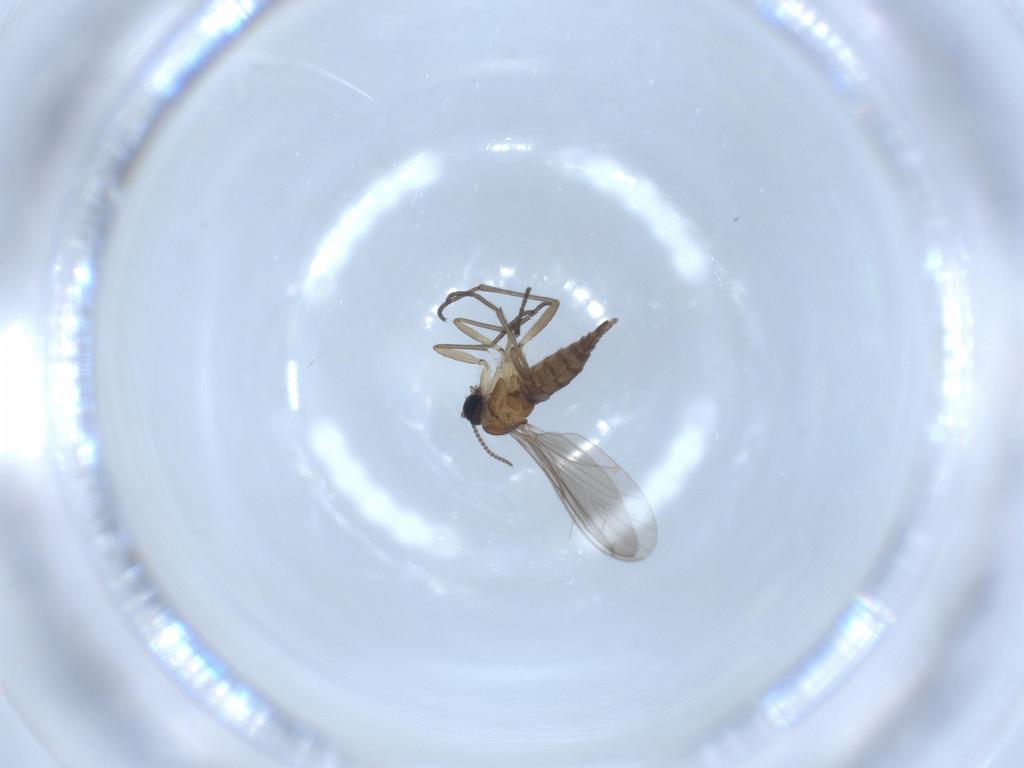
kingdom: Animalia
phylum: Arthropoda
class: Insecta
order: Diptera
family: Sciaridae
